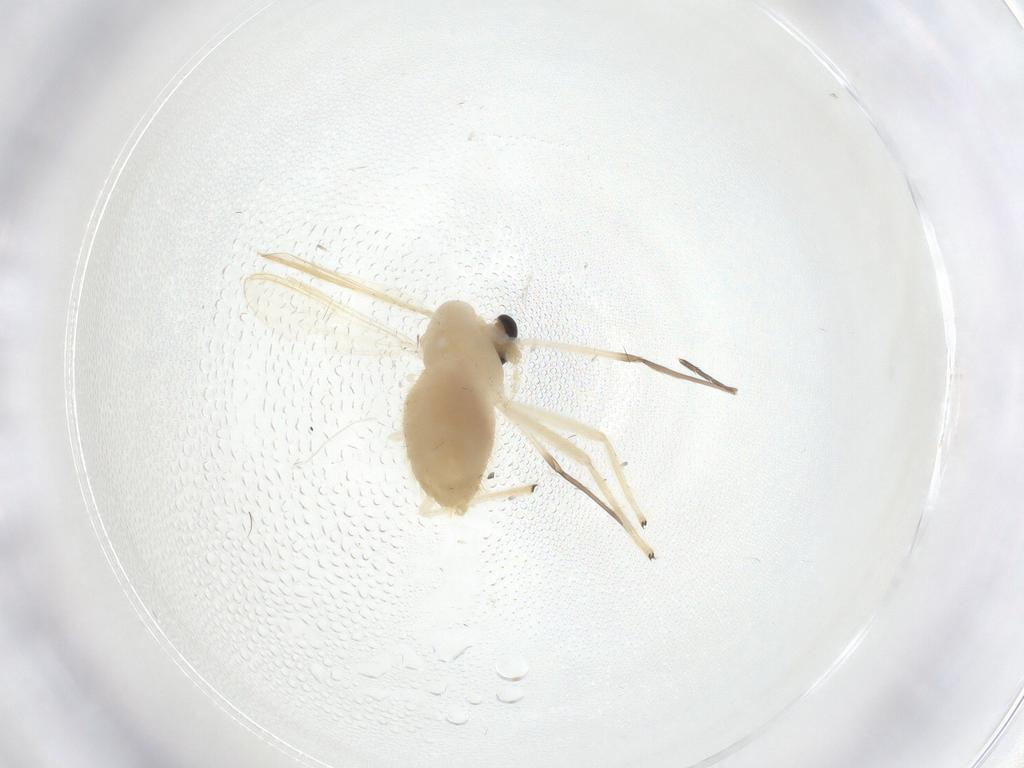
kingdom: Animalia
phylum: Arthropoda
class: Insecta
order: Diptera
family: Chironomidae
